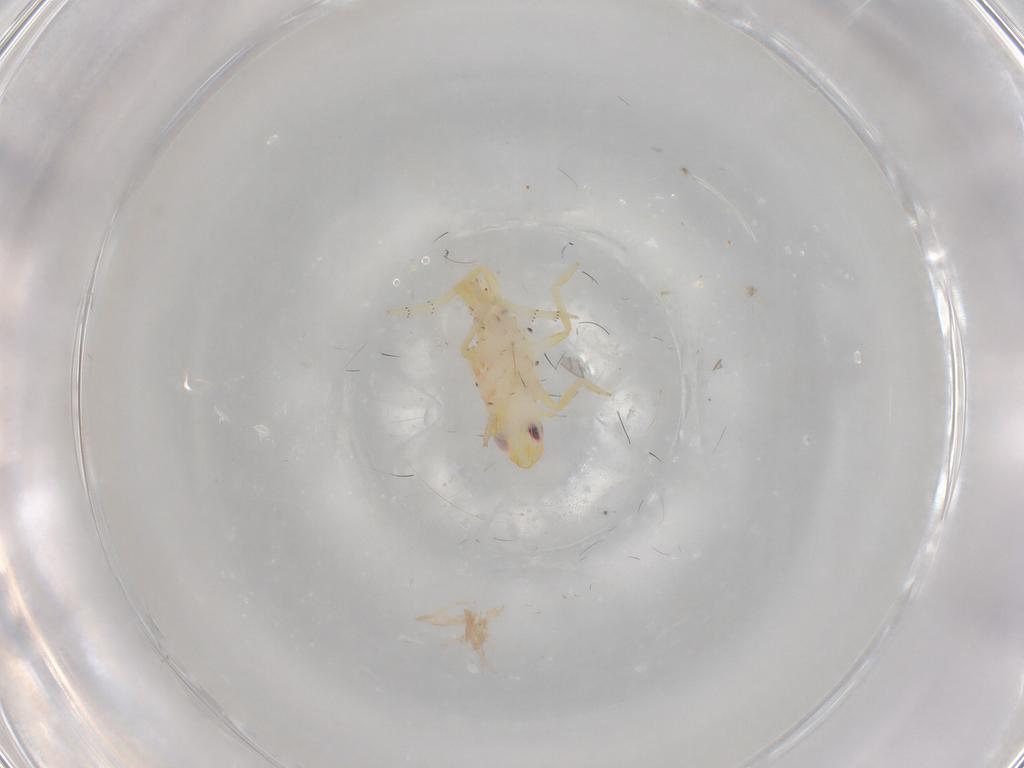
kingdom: Animalia
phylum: Arthropoda
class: Insecta
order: Hemiptera
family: Tropiduchidae
